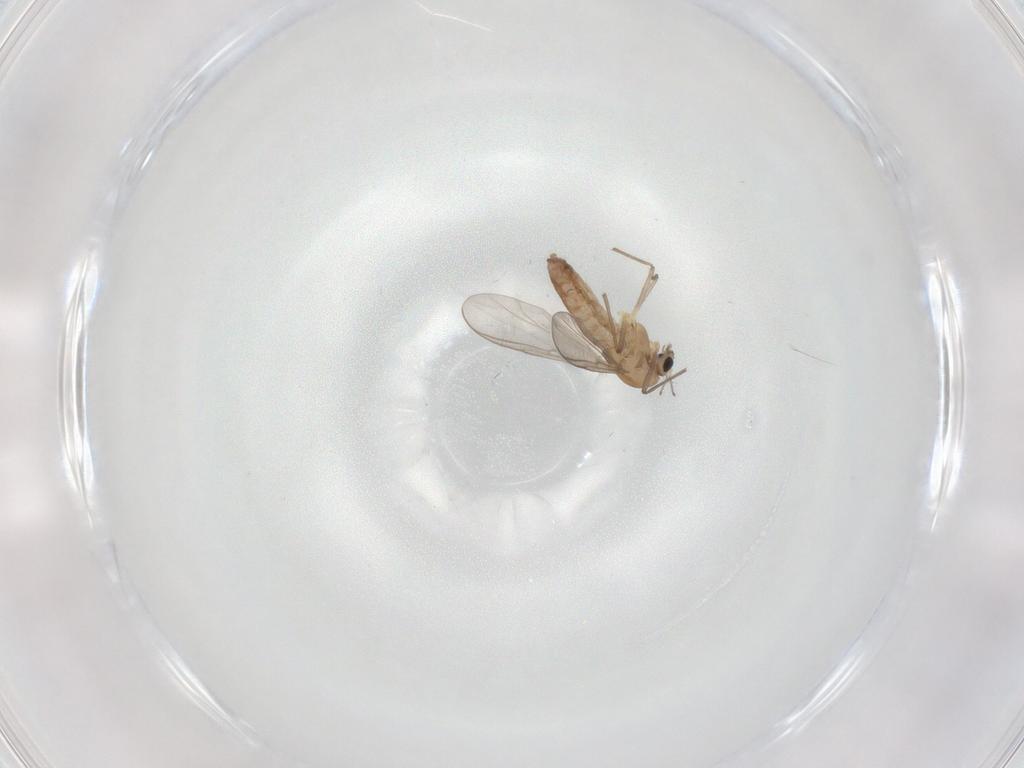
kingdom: Animalia
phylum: Arthropoda
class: Insecta
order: Diptera
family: Chironomidae
